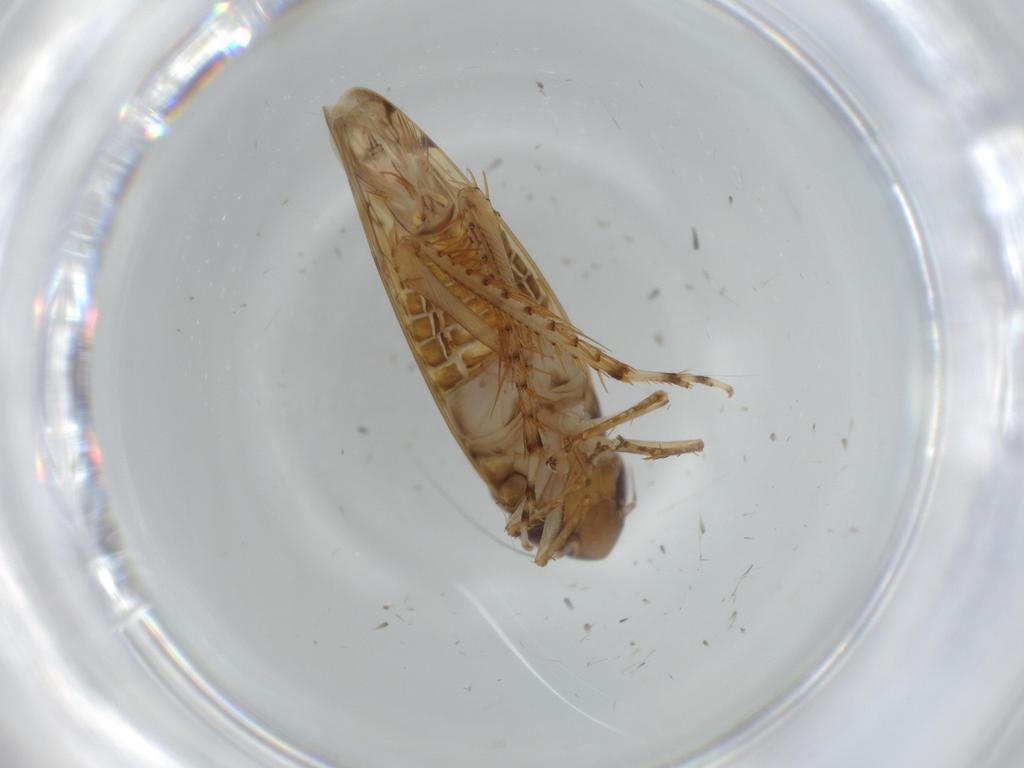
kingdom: Animalia
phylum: Arthropoda
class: Insecta
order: Hemiptera
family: Cicadellidae
